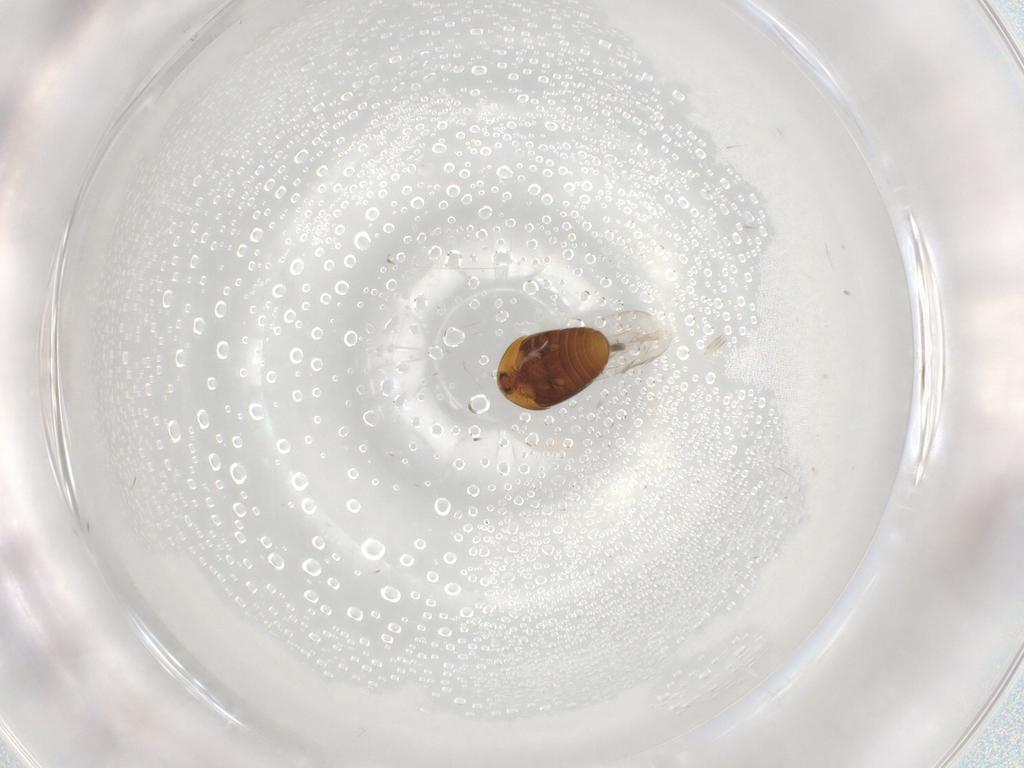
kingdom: Animalia
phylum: Arthropoda
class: Insecta
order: Coleoptera
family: Corylophidae
